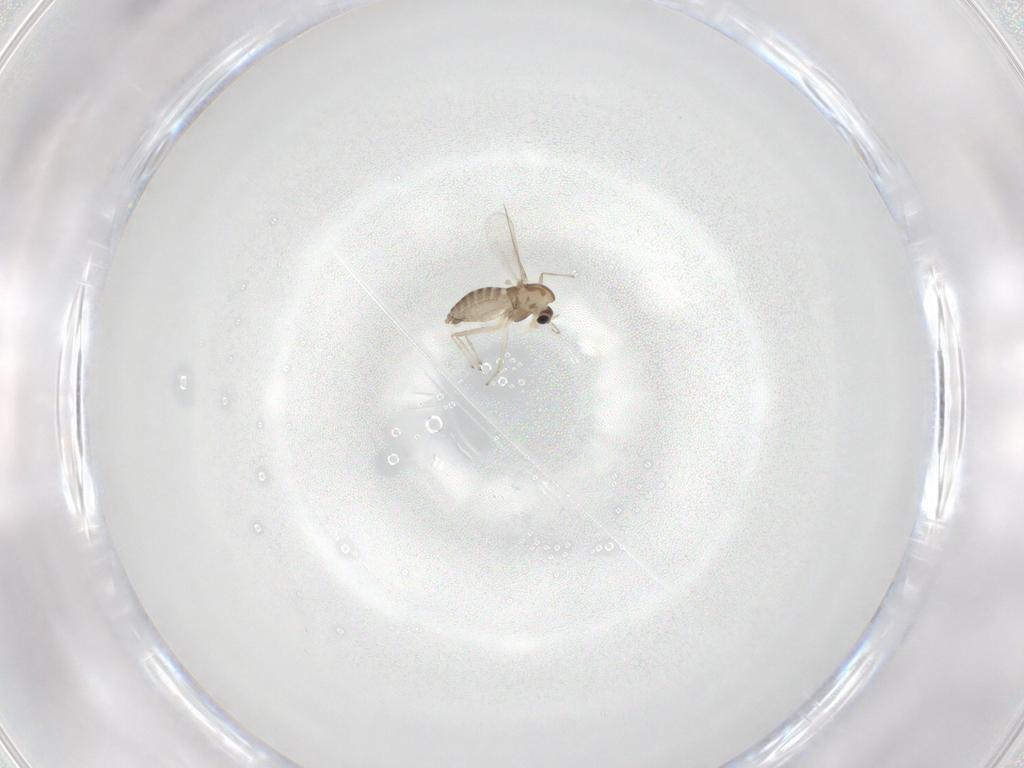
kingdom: Animalia
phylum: Arthropoda
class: Insecta
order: Diptera
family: Chironomidae
